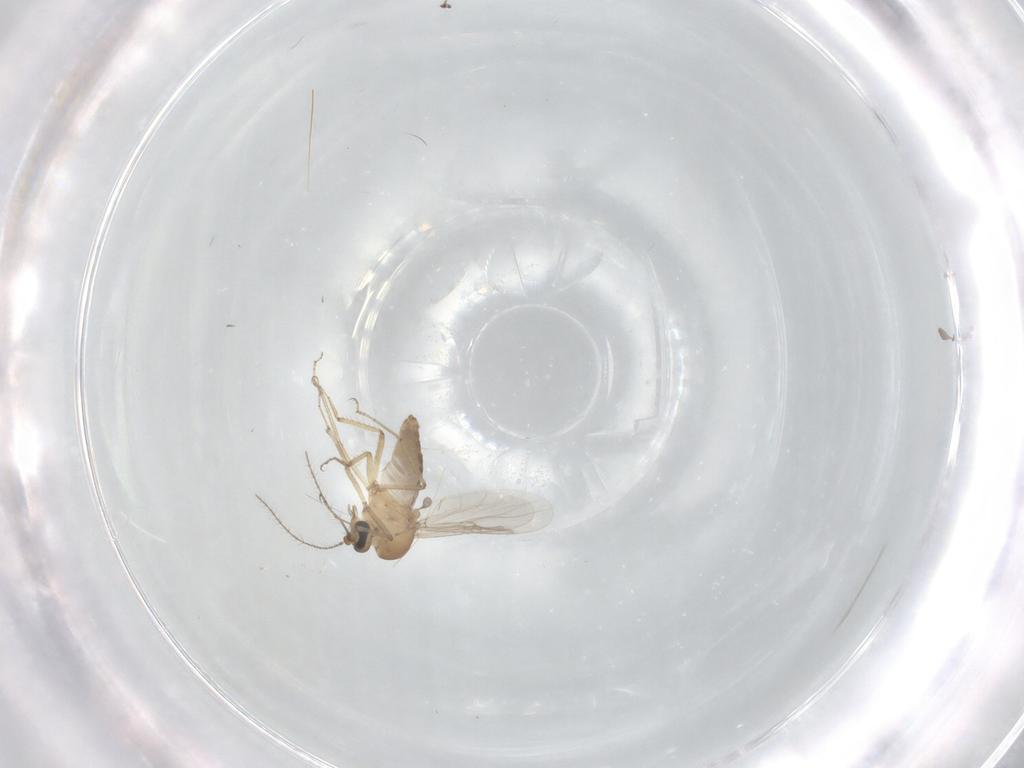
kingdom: Animalia
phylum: Arthropoda
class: Insecta
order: Diptera
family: Ceratopogonidae
